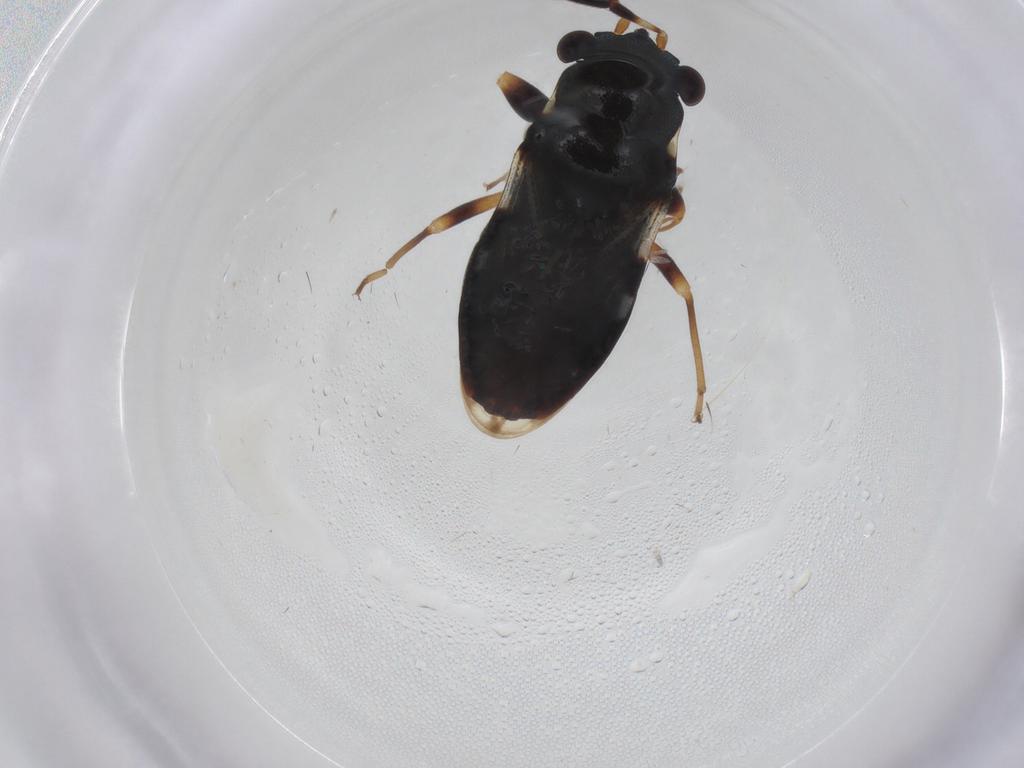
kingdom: Animalia
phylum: Arthropoda
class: Insecta
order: Hemiptera
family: Rhyparochromidae
